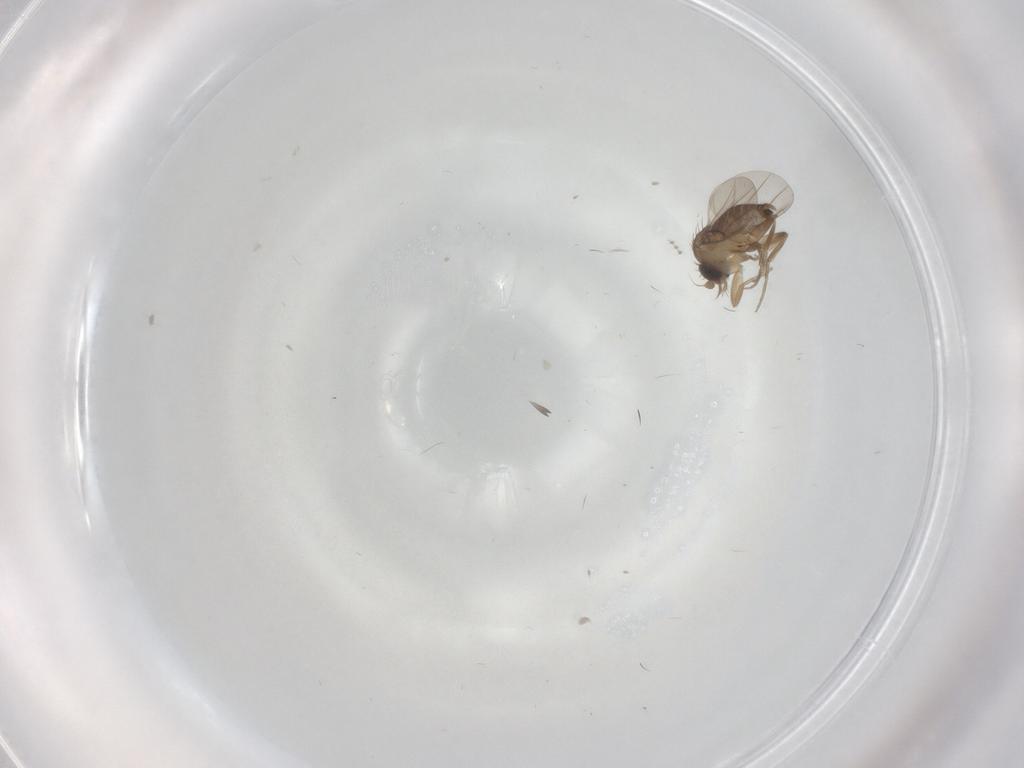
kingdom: Animalia
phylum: Arthropoda
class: Insecta
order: Diptera
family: Cecidomyiidae
